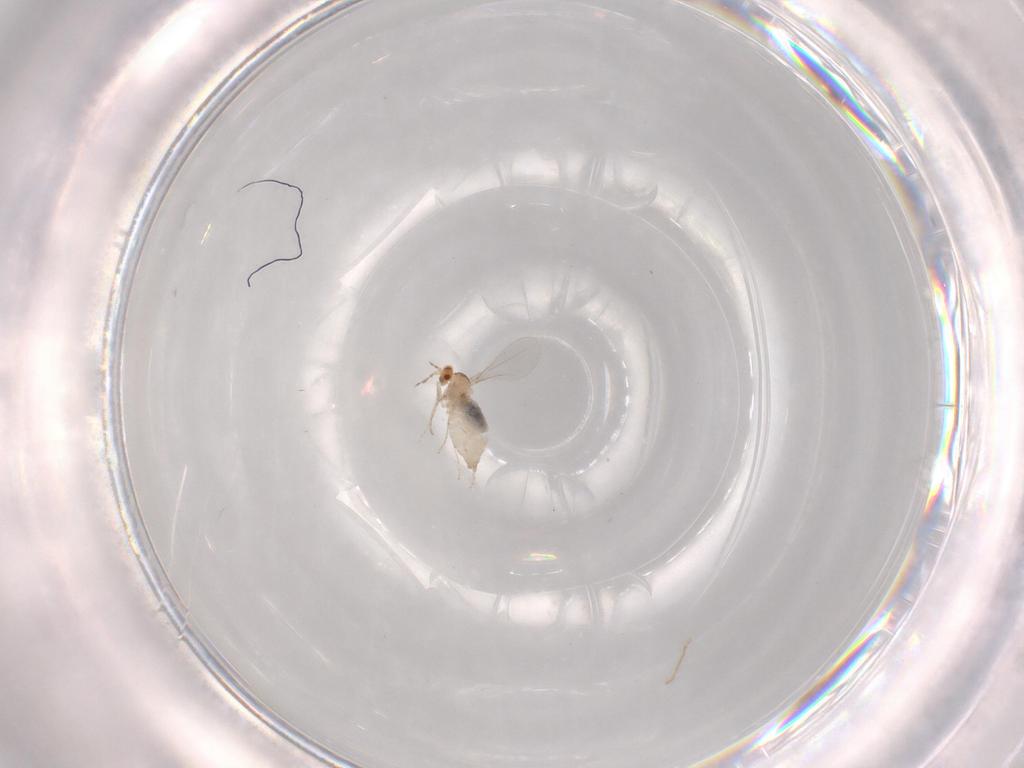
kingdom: Animalia
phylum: Arthropoda
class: Insecta
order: Diptera
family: Cecidomyiidae
